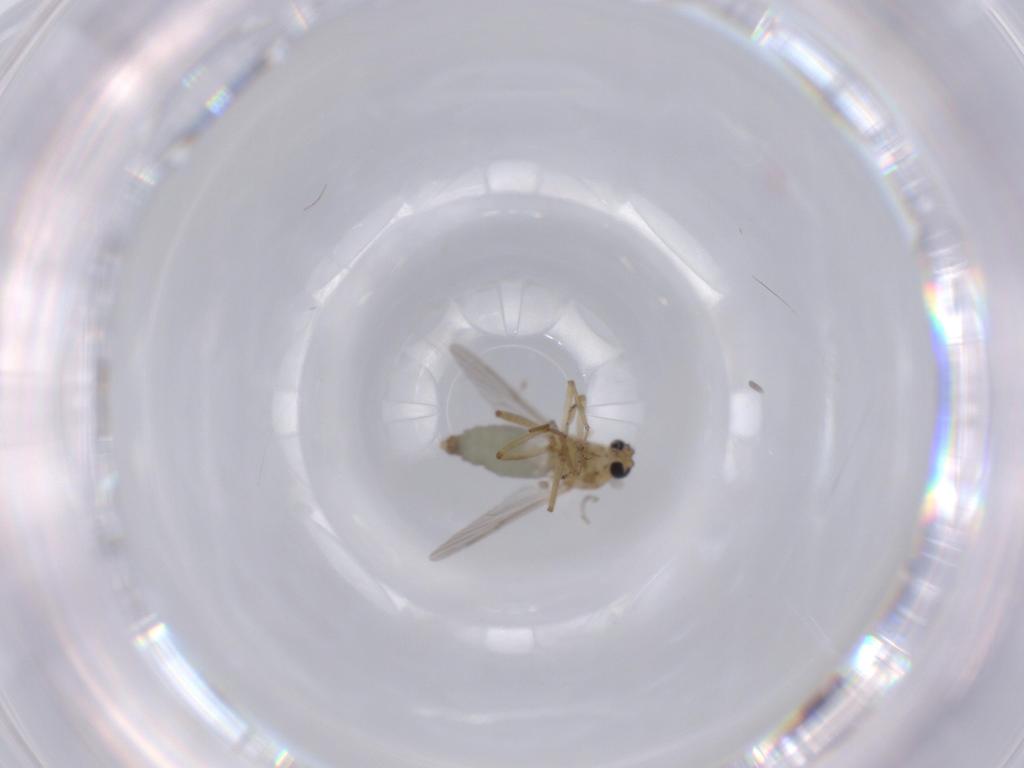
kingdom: Animalia
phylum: Arthropoda
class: Insecta
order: Diptera
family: Ceratopogonidae
